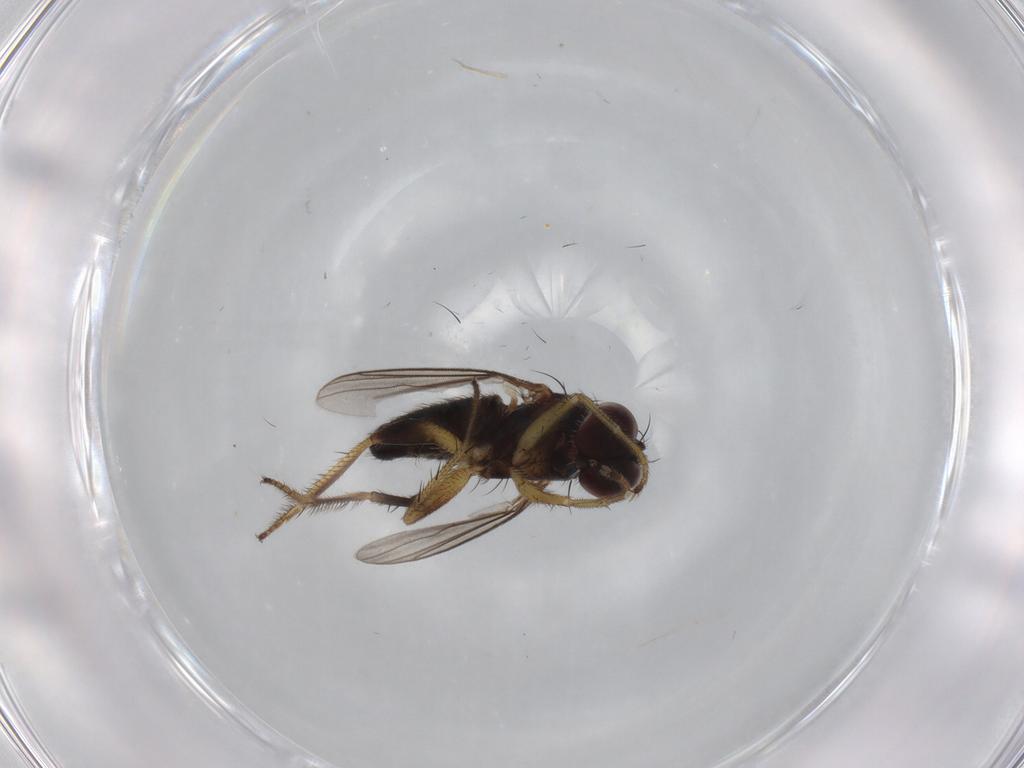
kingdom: Animalia
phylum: Arthropoda
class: Insecta
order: Diptera
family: Dolichopodidae
